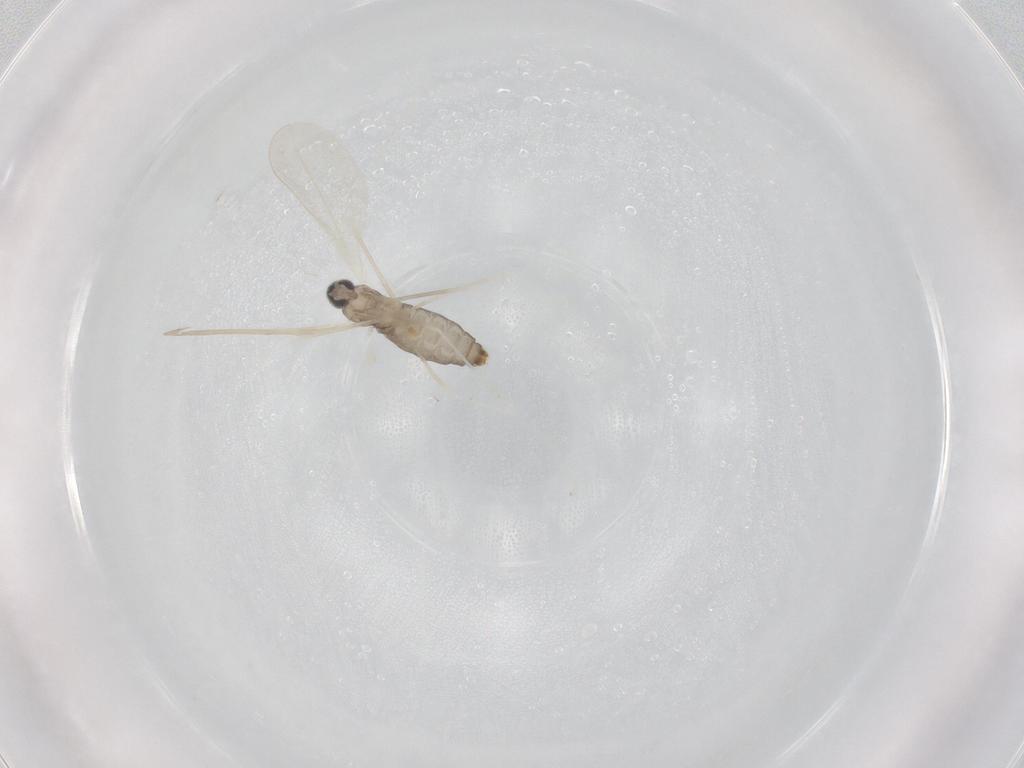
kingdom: Animalia
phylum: Arthropoda
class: Insecta
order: Diptera
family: Cecidomyiidae
